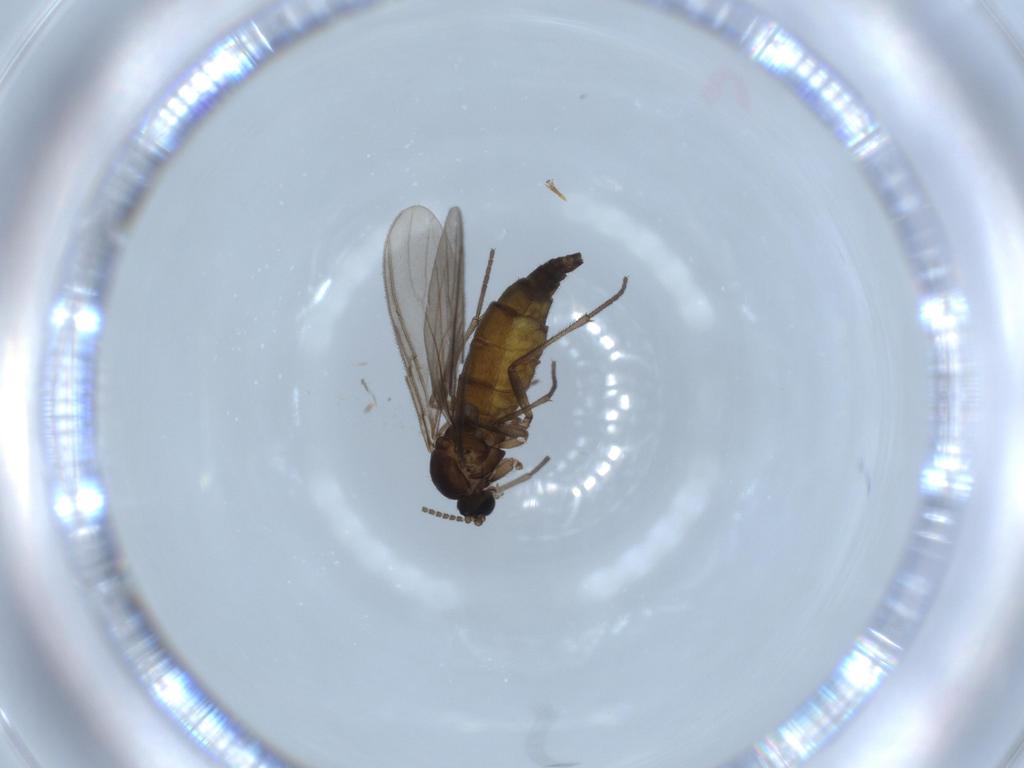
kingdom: Animalia
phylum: Arthropoda
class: Insecta
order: Diptera
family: Sciaridae
